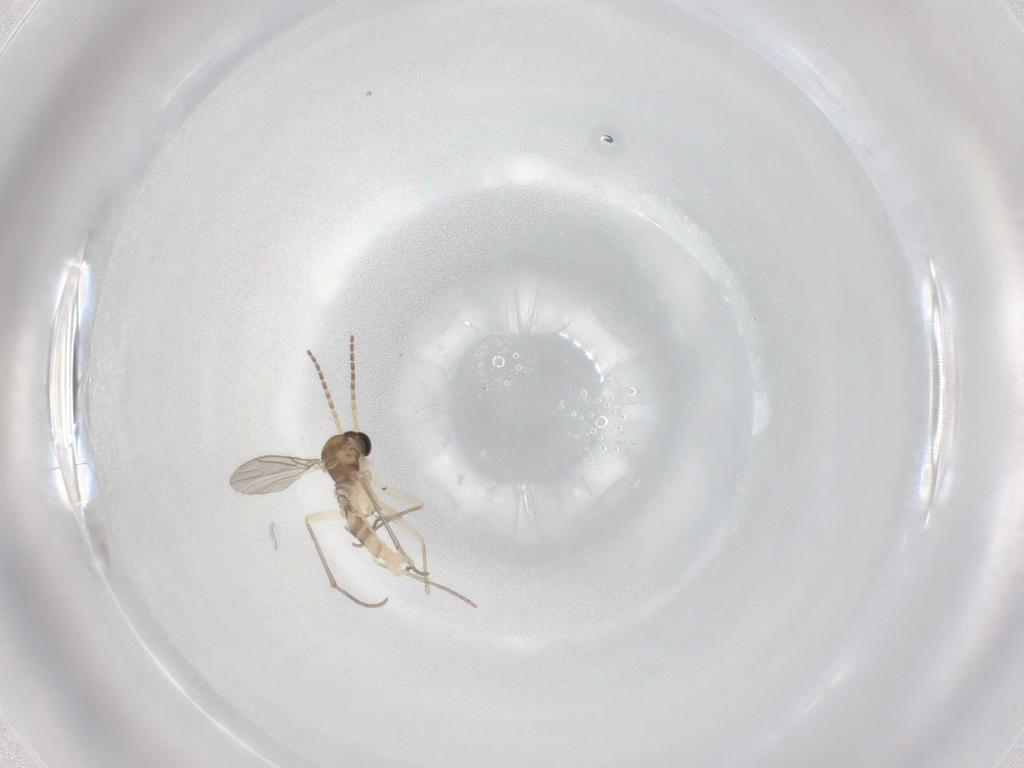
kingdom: Animalia
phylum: Arthropoda
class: Insecta
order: Diptera
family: Ceratopogonidae
